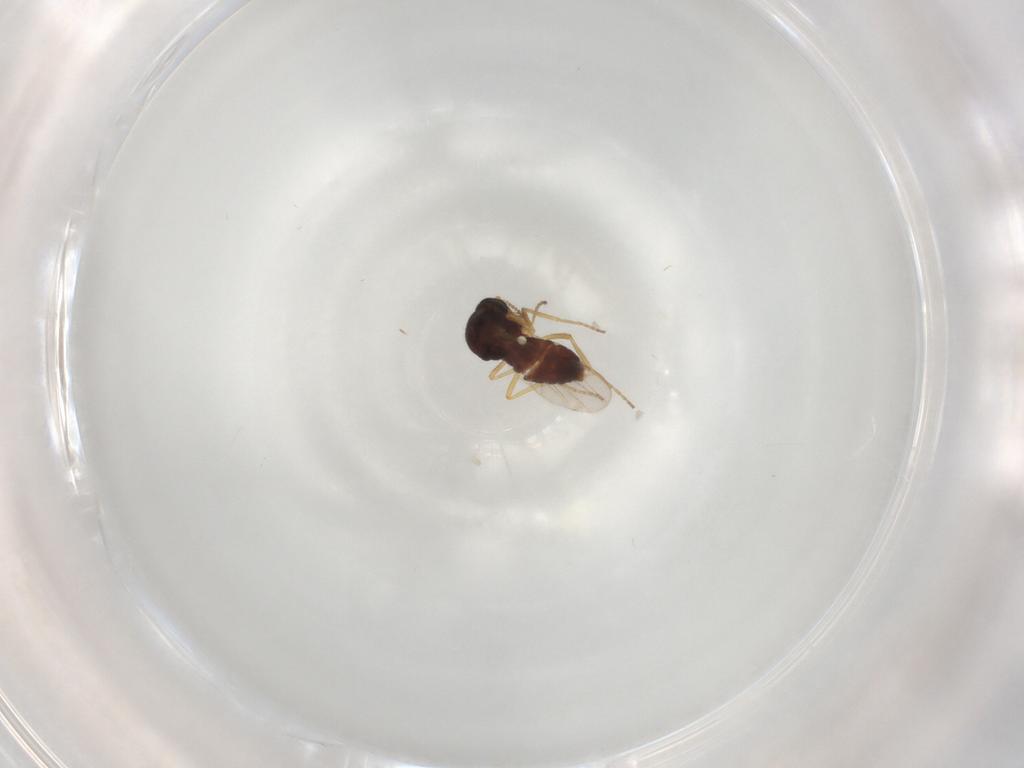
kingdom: Animalia
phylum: Arthropoda
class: Insecta
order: Diptera
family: Ceratopogonidae
